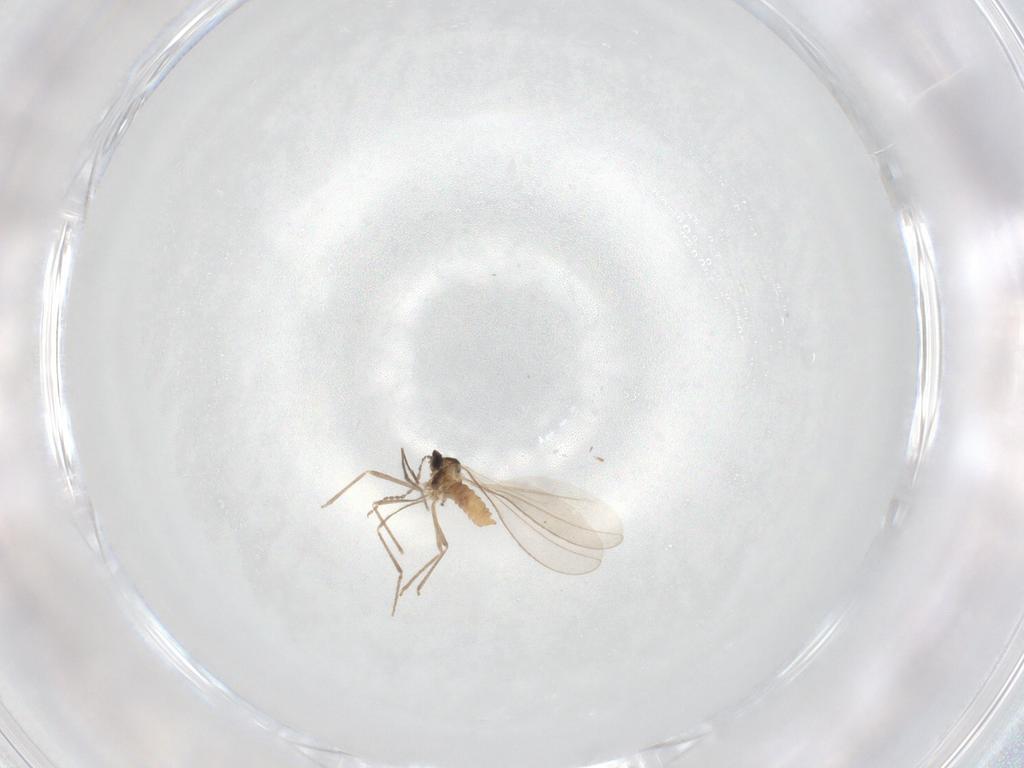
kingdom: Animalia
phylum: Arthropoda
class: Insecta
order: Diptera
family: Cecidomyiidae
